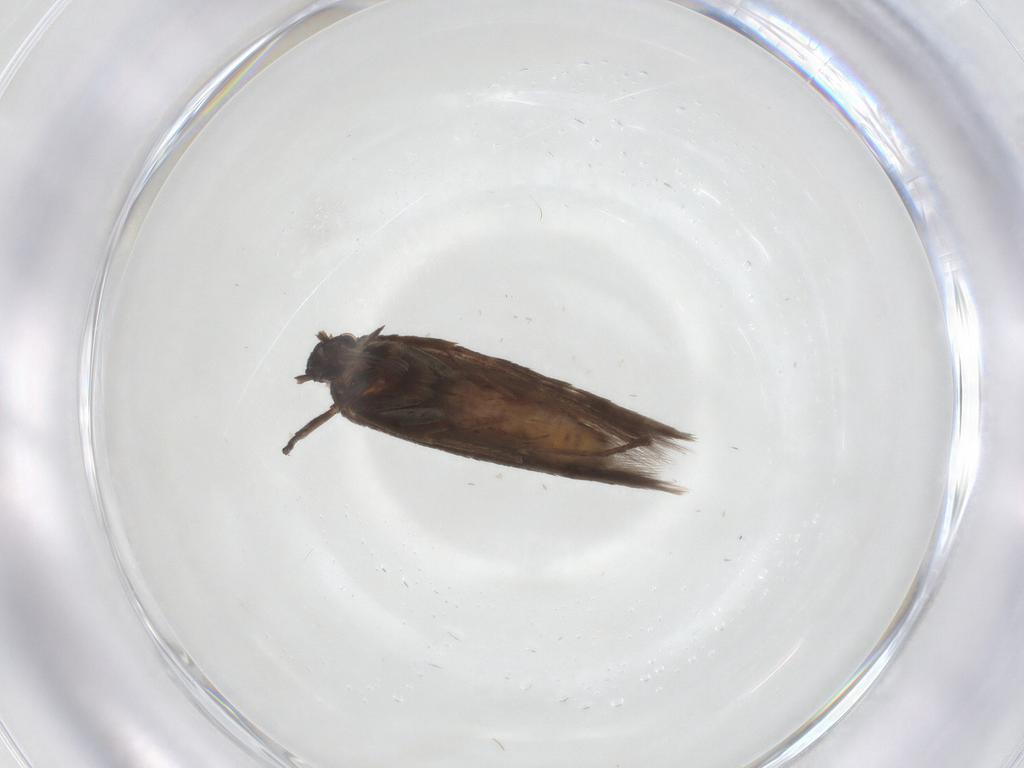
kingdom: Animalia
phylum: Arthropoda
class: Insecta
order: Lepidoptera
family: Scythrididae
